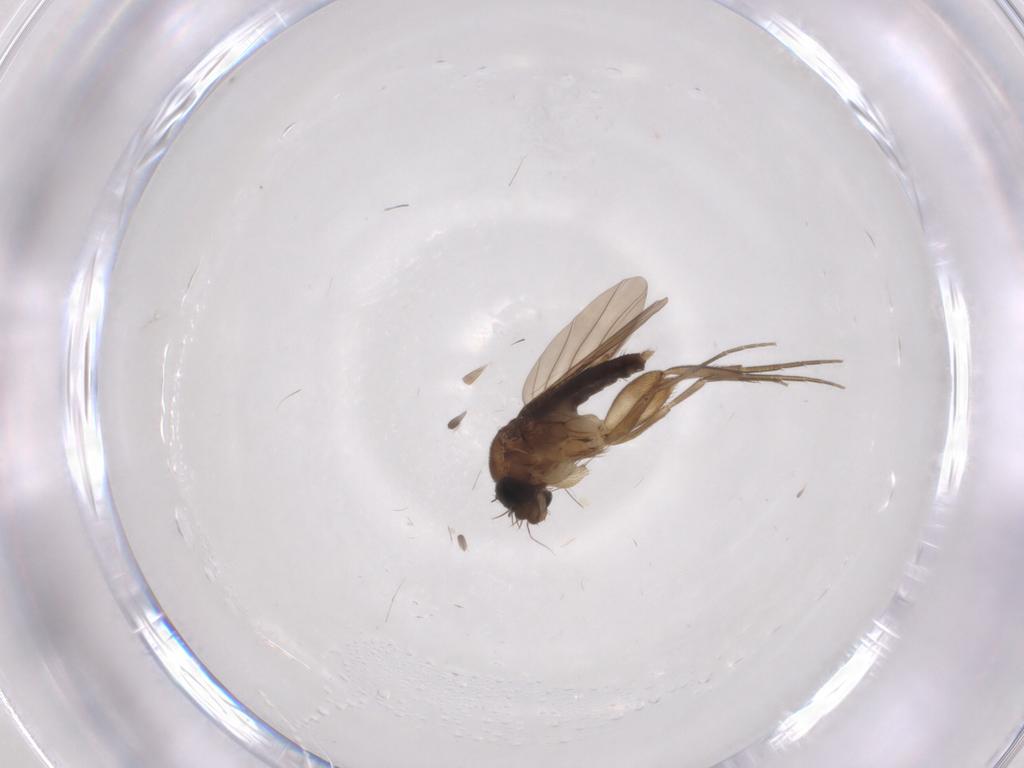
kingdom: Animalia
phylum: Arthropoda
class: Insecta
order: Diptera
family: Phoridae
